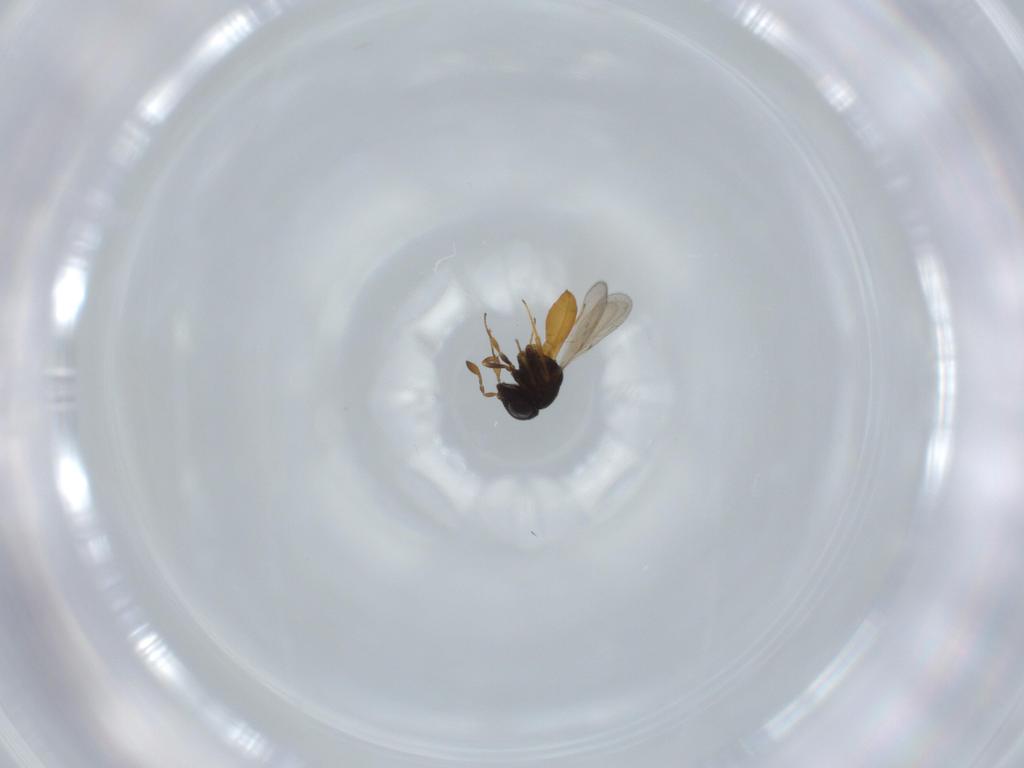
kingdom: Animalia
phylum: Arthropoda
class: Insecta
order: Hymenoptera
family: Scelionidae
